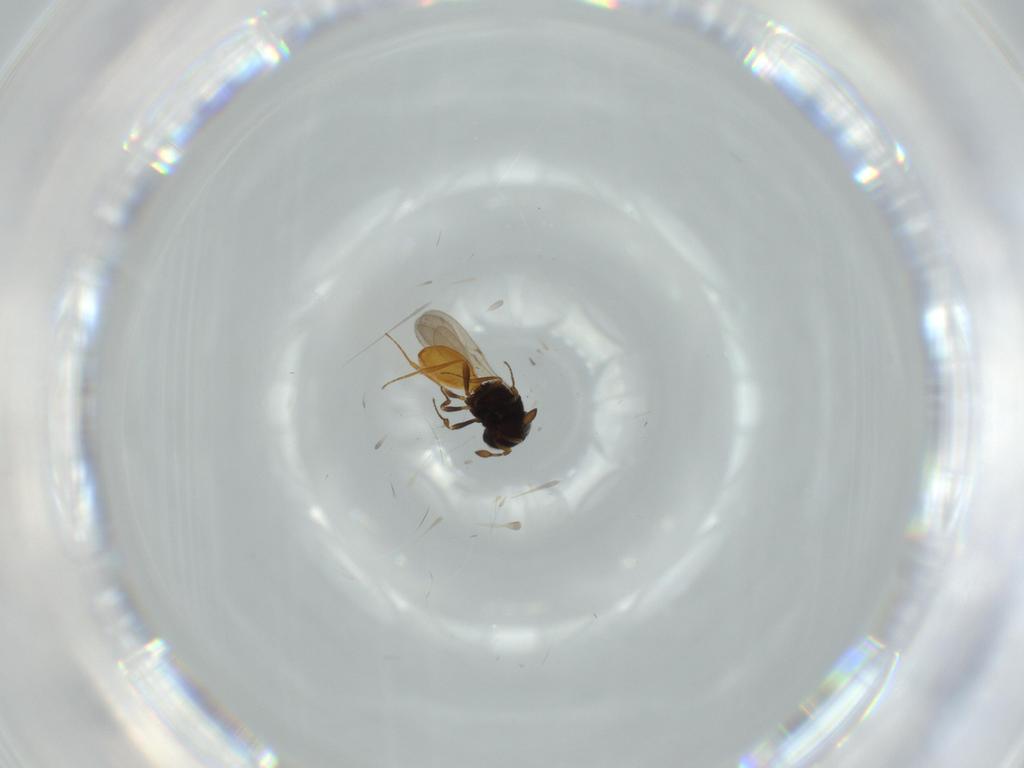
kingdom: Animalia
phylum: Arthropoda
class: Insecta
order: Hymenoptera
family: Scelionidae
